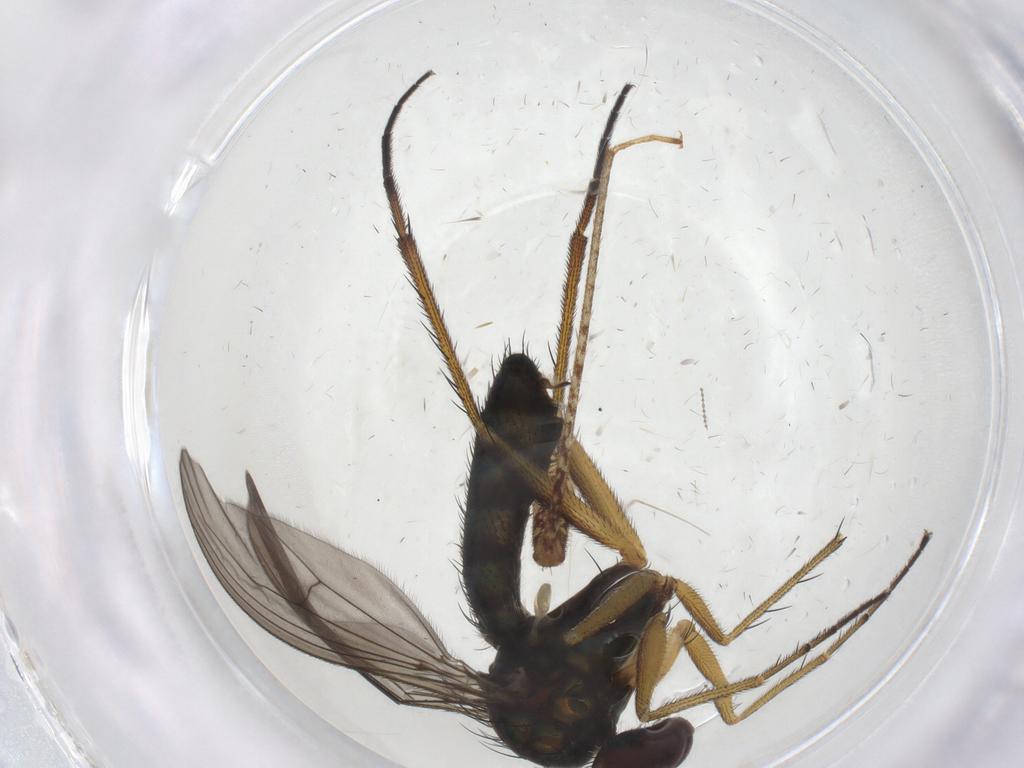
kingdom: Animalia
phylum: Arthropoda
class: Insecta
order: Diptera
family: Dolichopodidae
